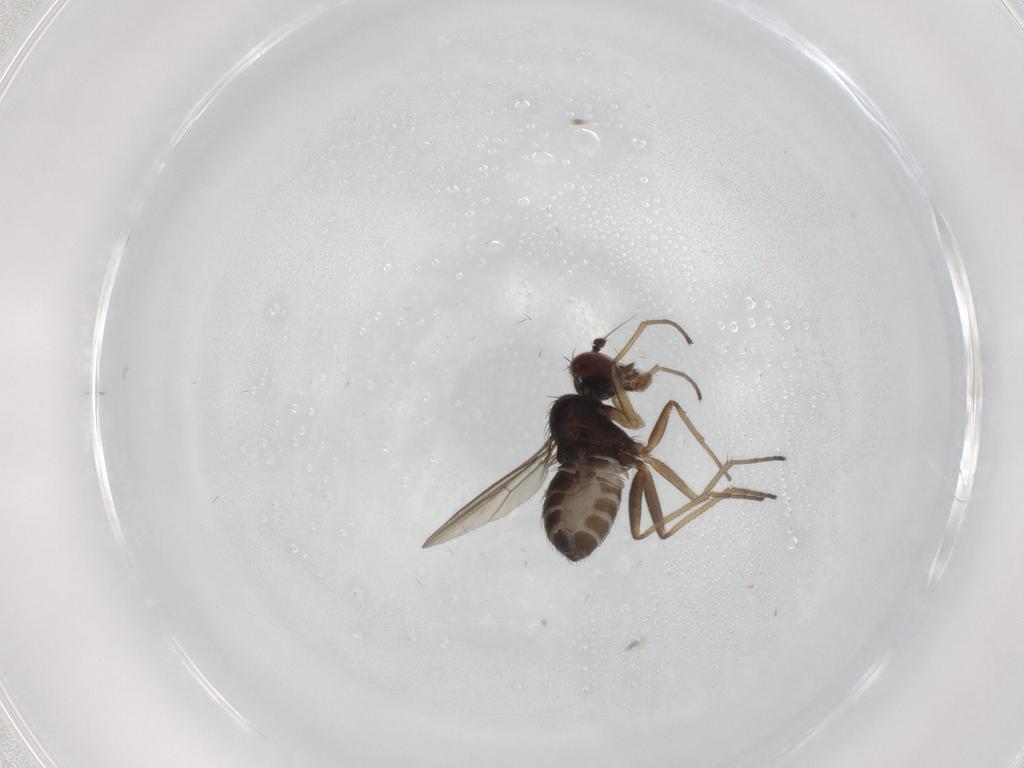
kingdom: Animalia
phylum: Arthropoda
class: Insecta
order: Diptera
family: Dolichopodidae
